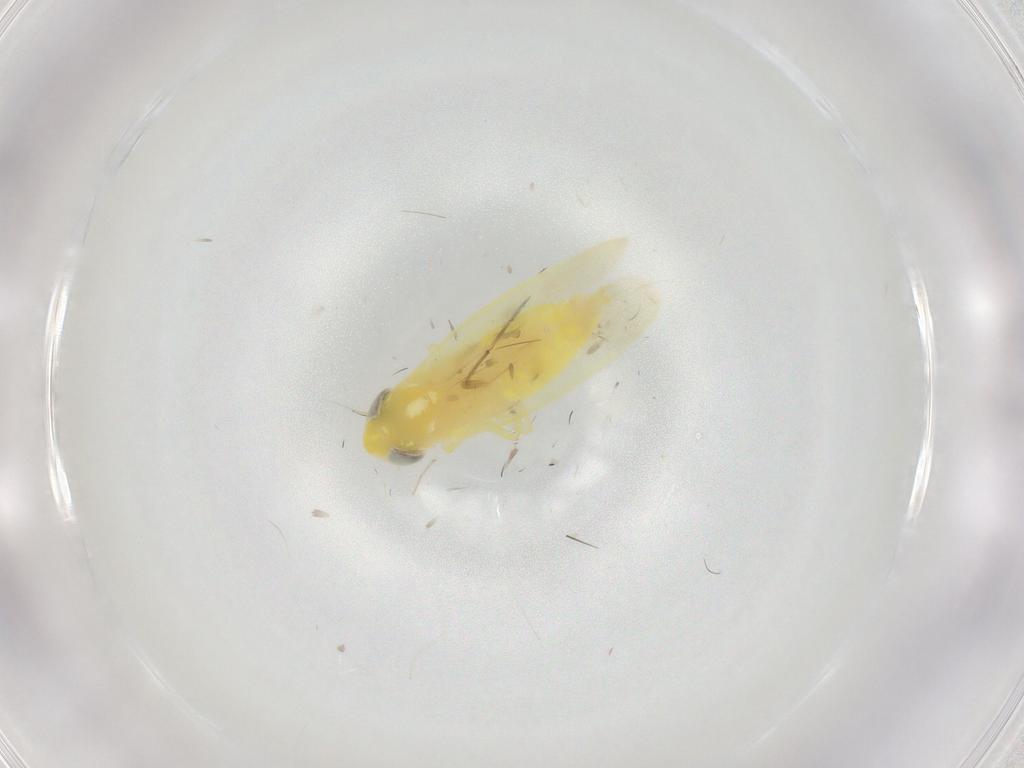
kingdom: Animalia
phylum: Arthropoda
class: Insecta
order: Hemiptera
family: Cicadellidae
